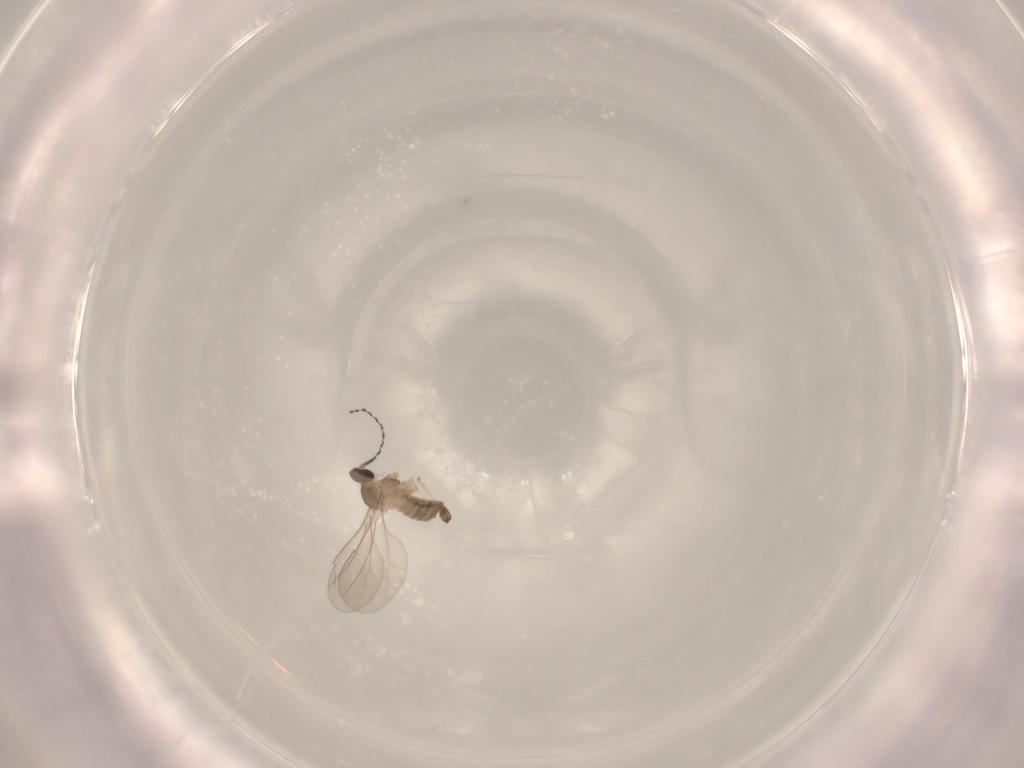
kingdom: Animalia
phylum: Arthropoda
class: Insecta
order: Diptera
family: Cecidomyiidae
